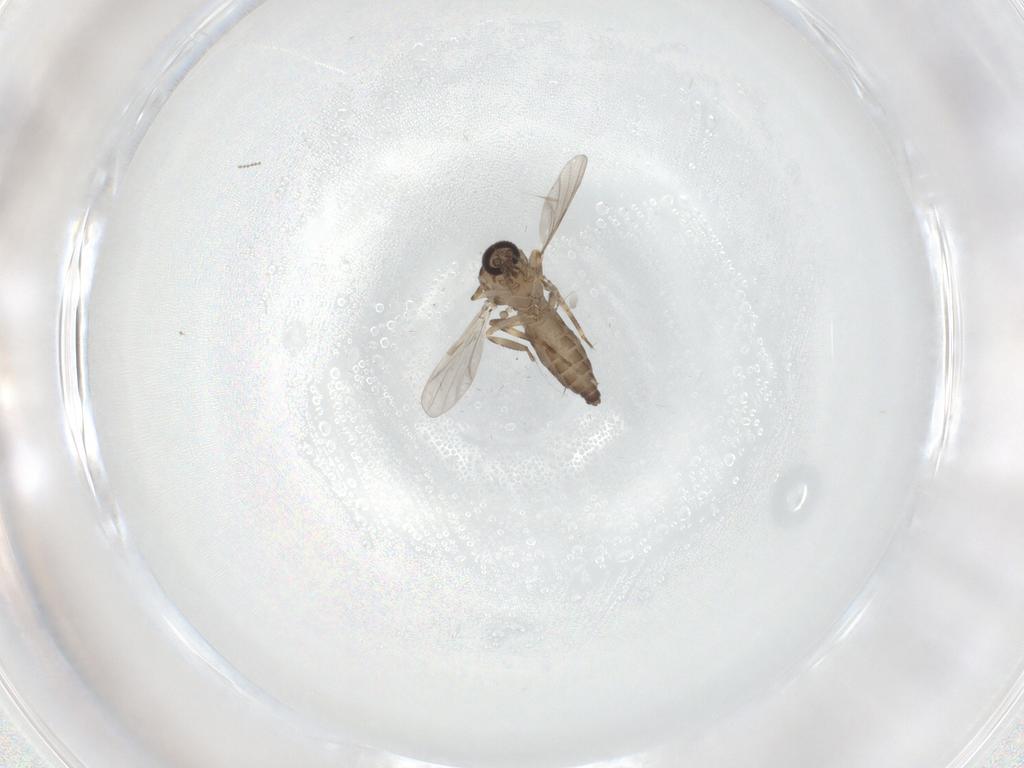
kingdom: Animalia
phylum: Arthropoda
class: Insecta
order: Diptera
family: Ceratopogonidae
